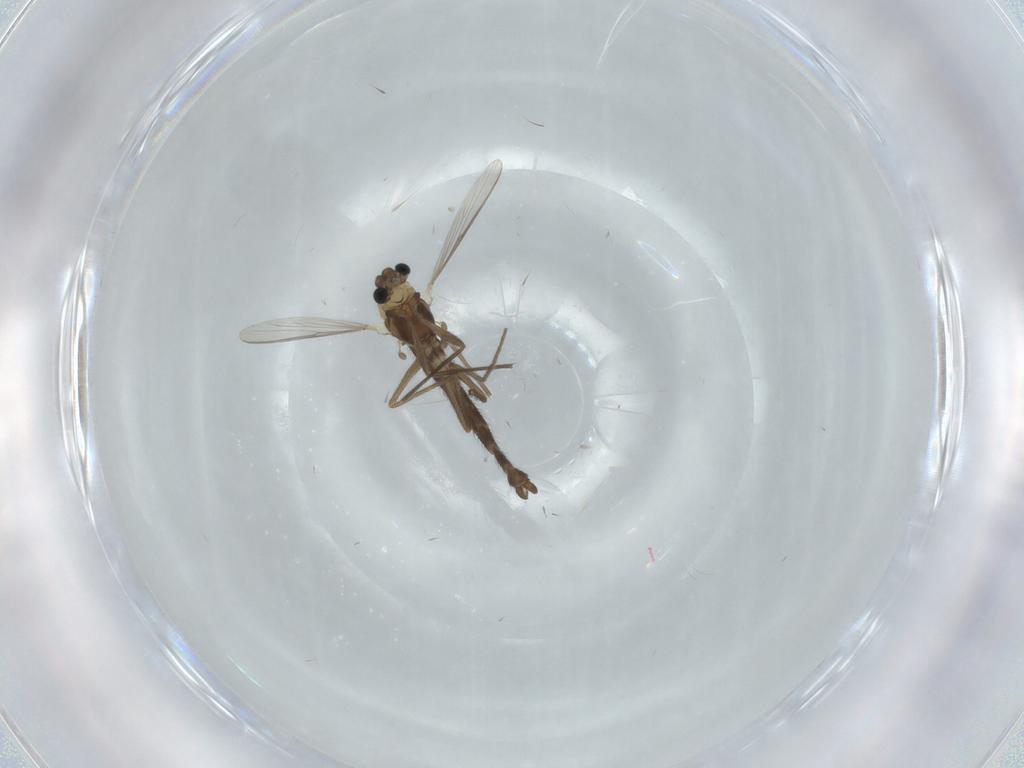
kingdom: Animalia
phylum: Arthropoda
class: Insecta
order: Diptera
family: Chironomidae
